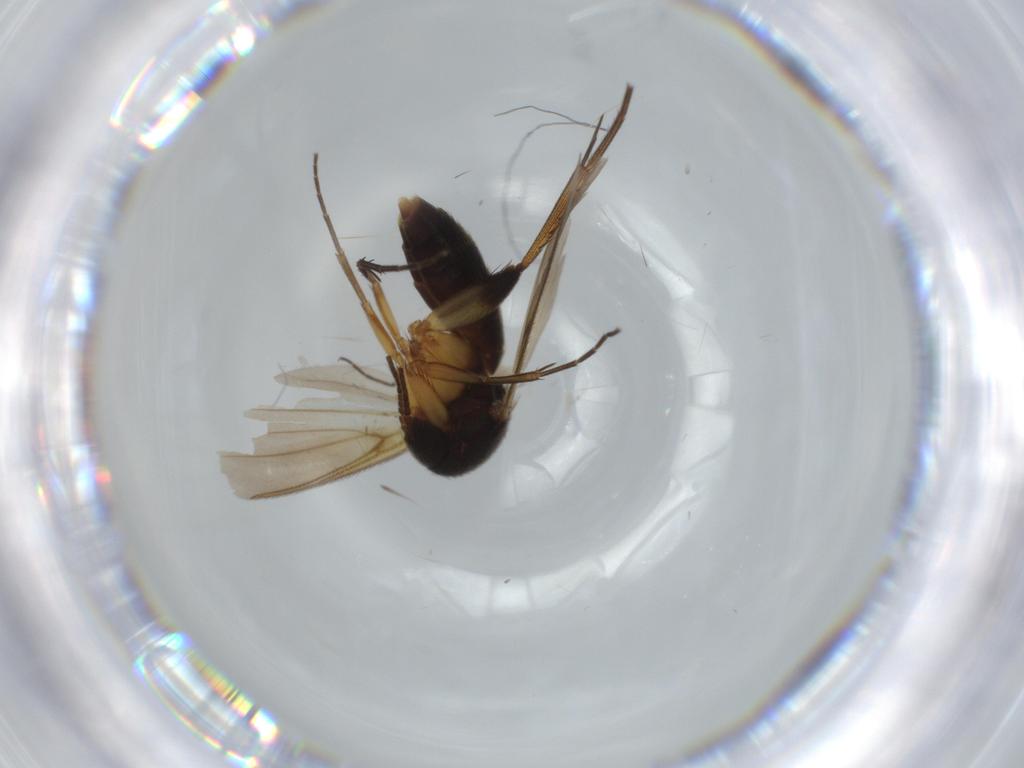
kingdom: Animalia
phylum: Arthropoda
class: Insecta
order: Diptera
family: Mycetophilidae
